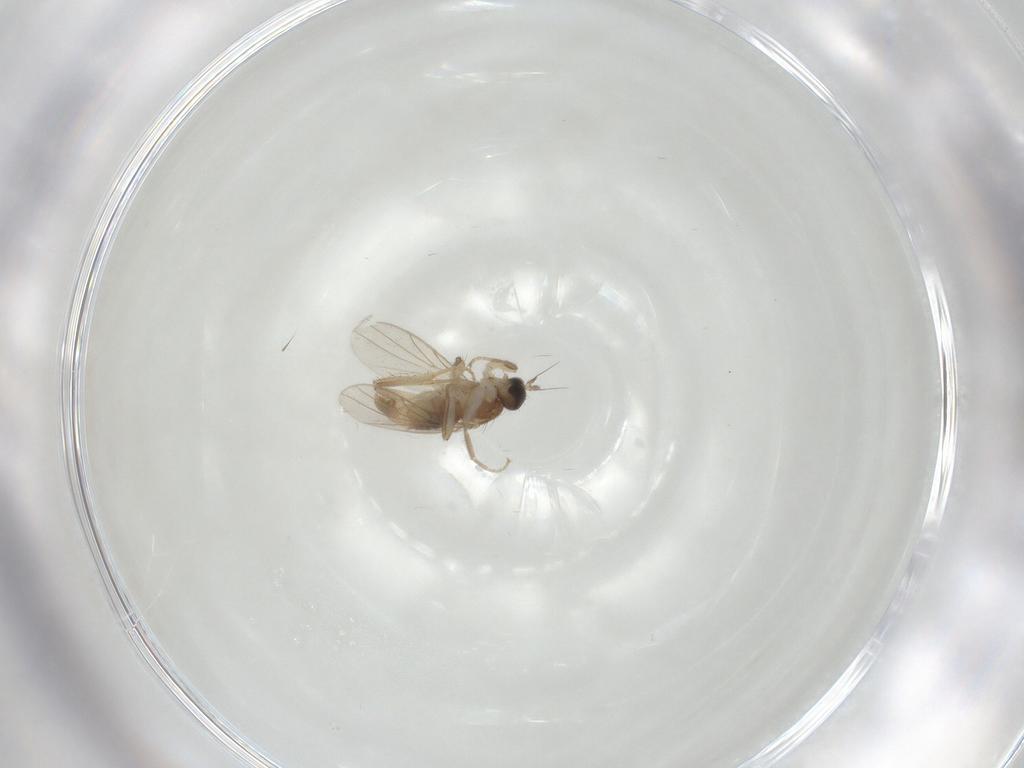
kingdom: Animalia
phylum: Arthropoda
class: Insecta
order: Diptera
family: Hybotidae
